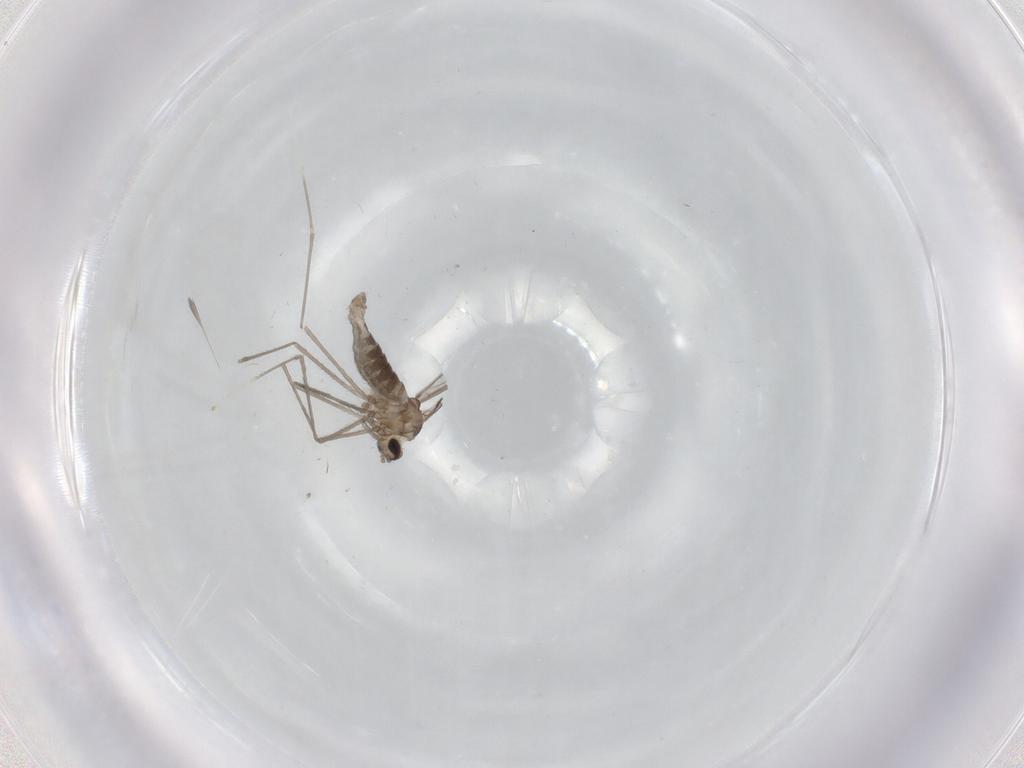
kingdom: Animalia
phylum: Arthropoda
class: Insecta
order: Diptera
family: Cecidomyiidae
